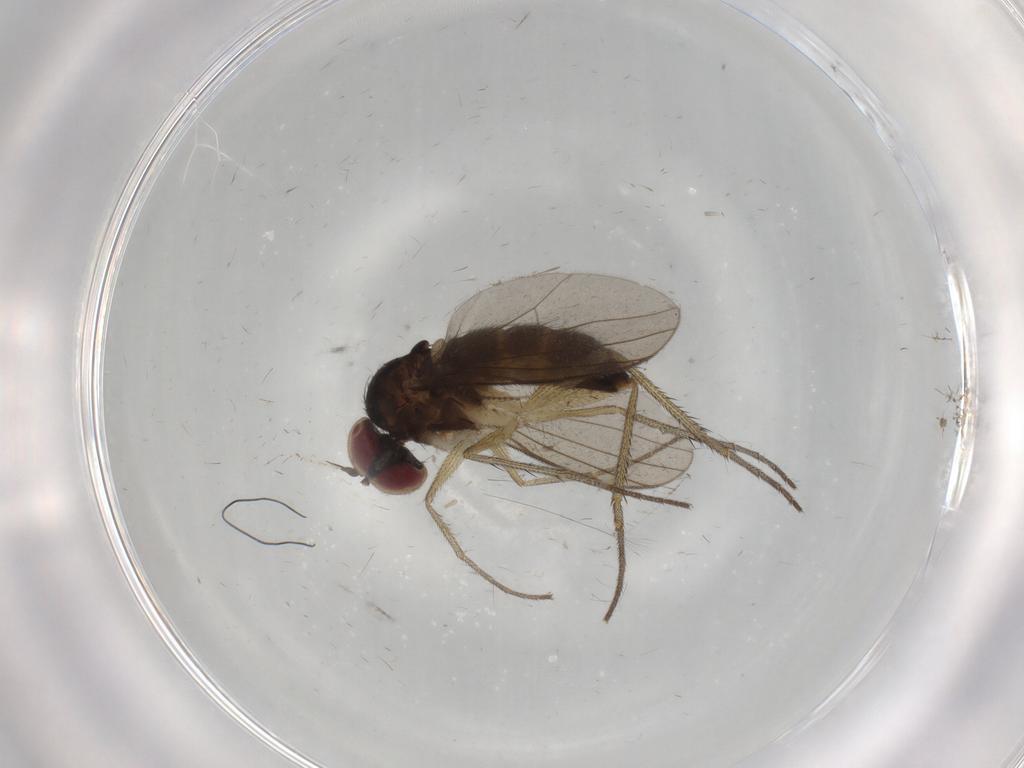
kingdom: Animalia
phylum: Arthropoda
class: Insecta
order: Diptera
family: Dolichopodidae
